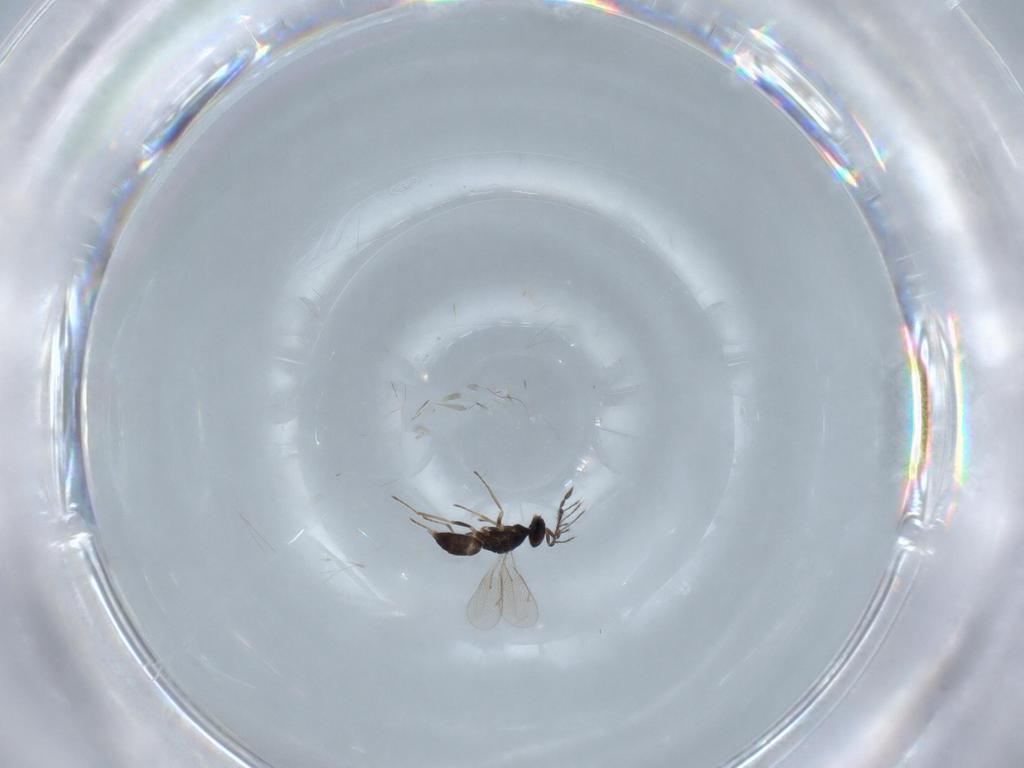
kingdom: Animalia
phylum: Arthropoda
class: Insecta
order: Hymenoptera
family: Eulophidae
